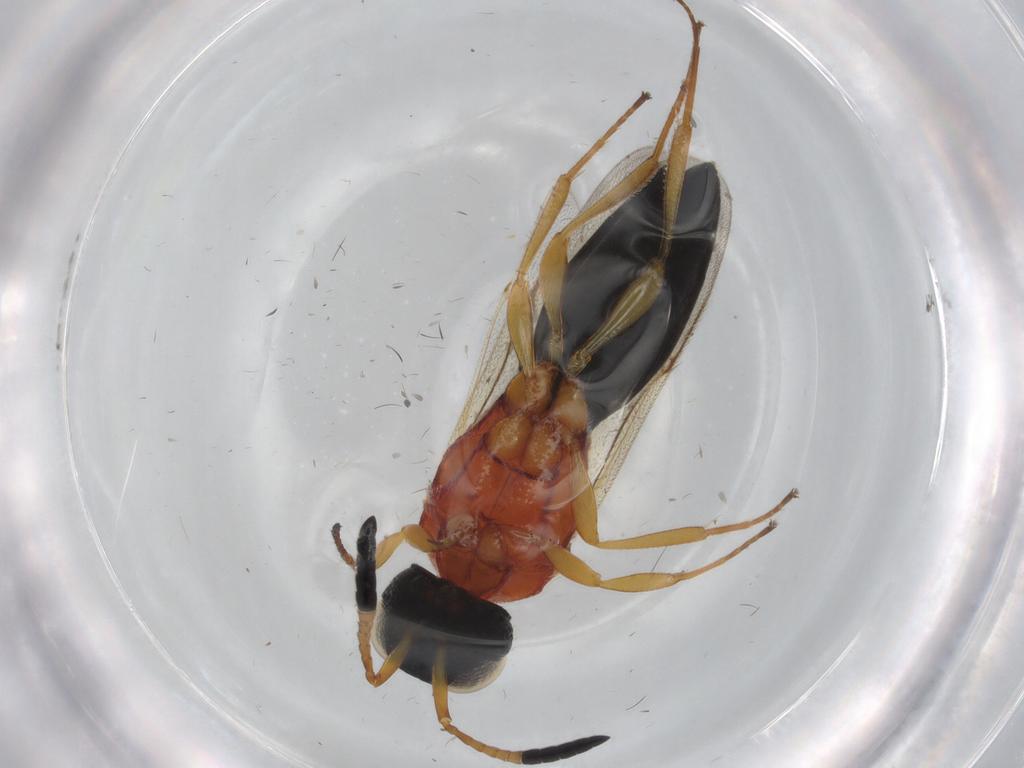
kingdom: Animalia
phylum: Arthropoda
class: Insecta
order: Hymenoptera
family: Scelionidae
